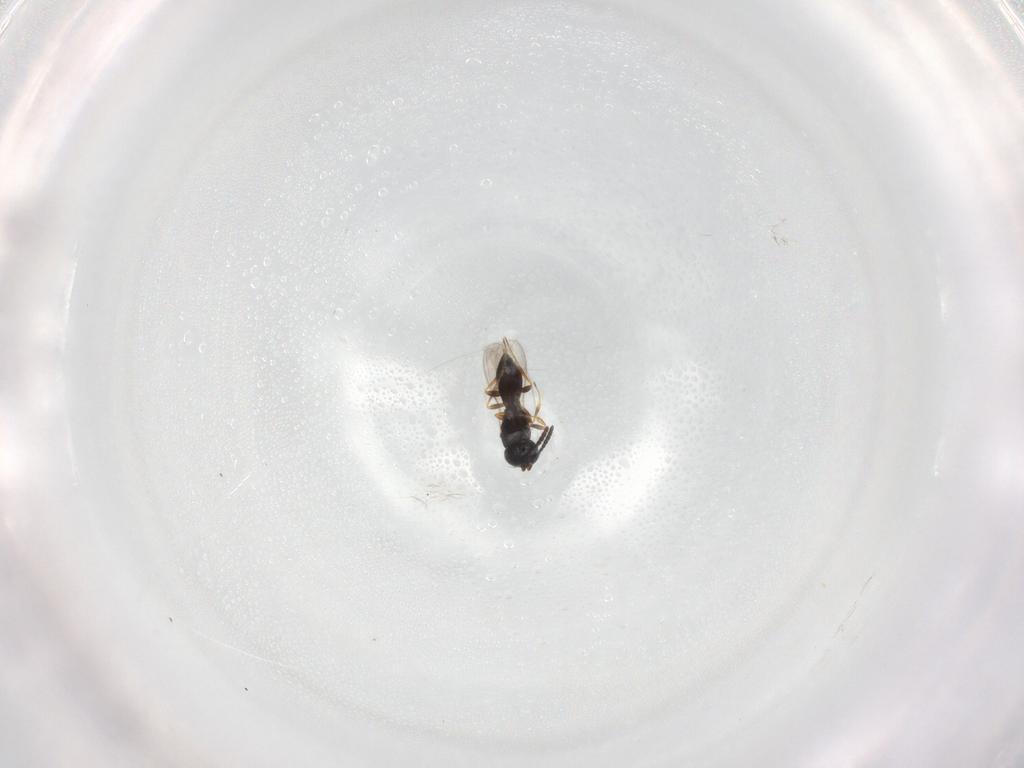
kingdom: Animalia
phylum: Arthropoda
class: Insecta
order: Hymenoptera
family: Scelionidae
